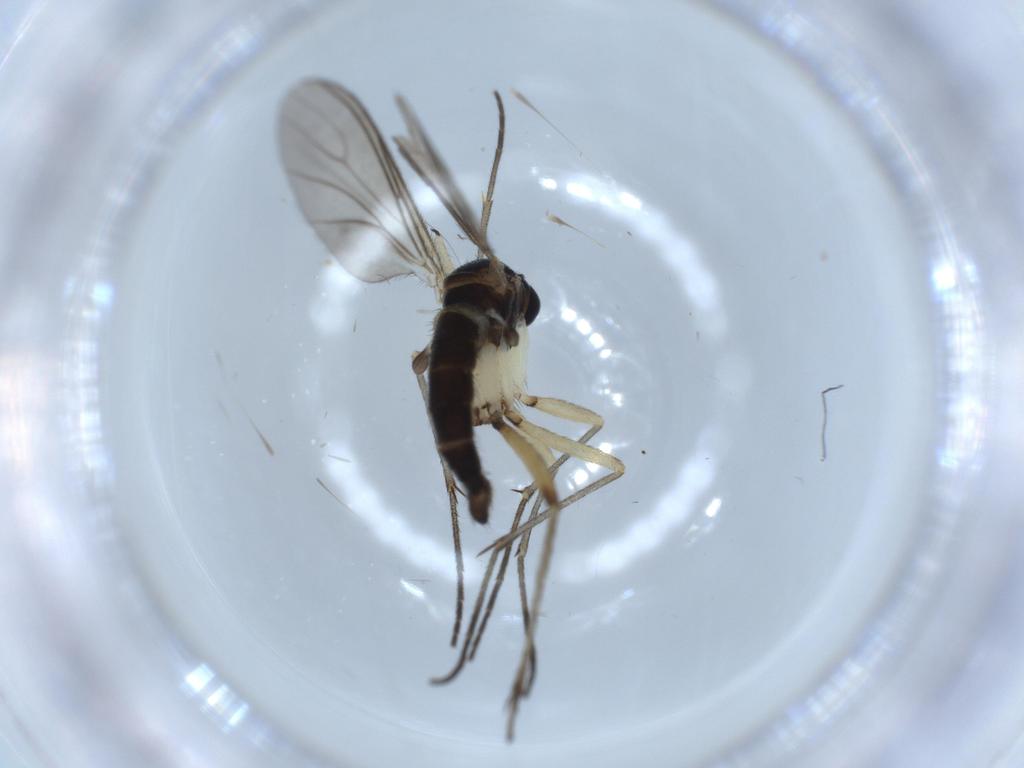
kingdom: Animalia
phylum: Arthropoda
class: Insecta
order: Diptera
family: Sciaridae
